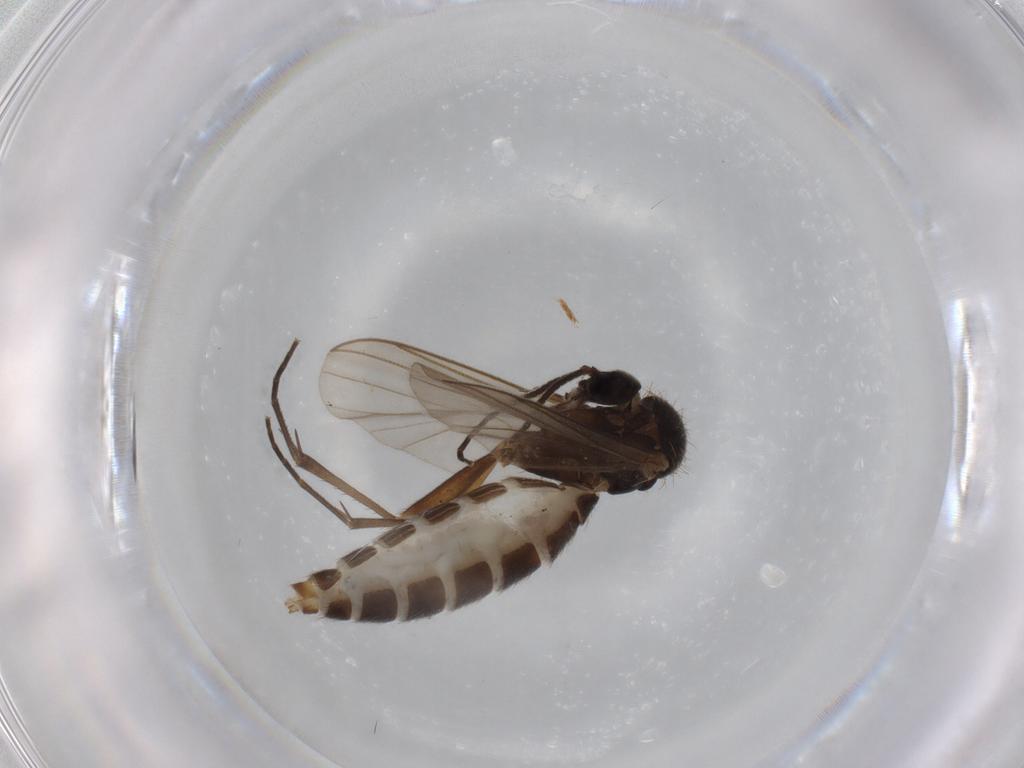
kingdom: Animalia
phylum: Arthropoda
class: Insecta
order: Diptera
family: Mycetophilidae
